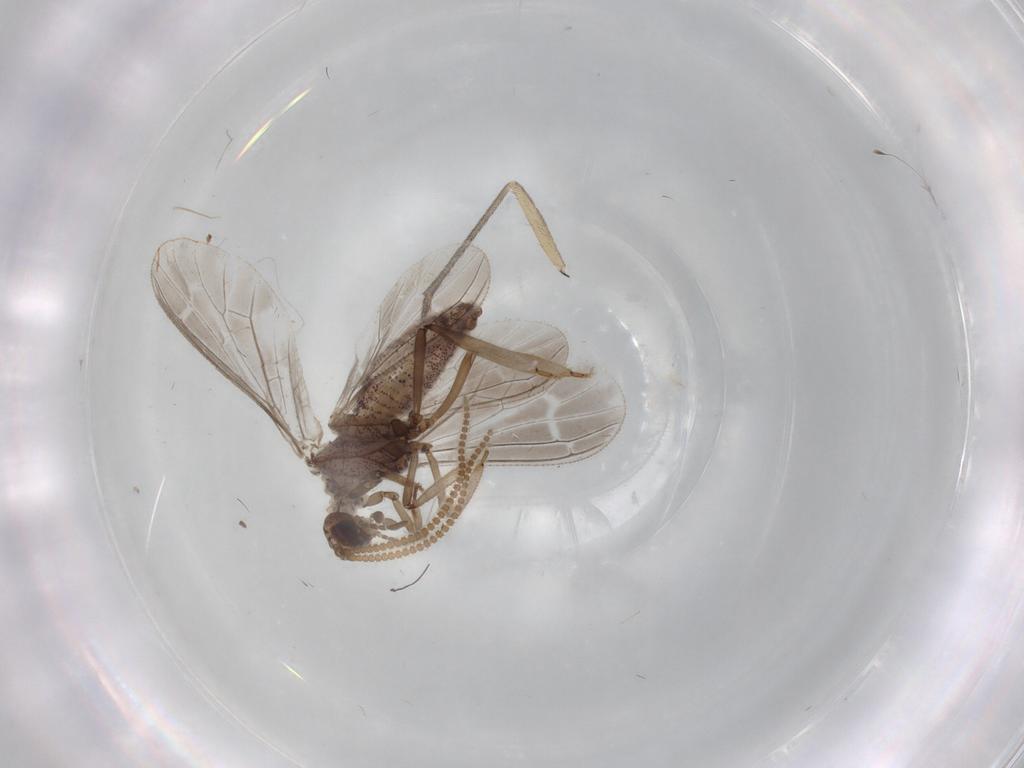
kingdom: Animalia
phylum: Arthropoda
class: Insecta
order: Neuroptera
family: Coniopterygidae
